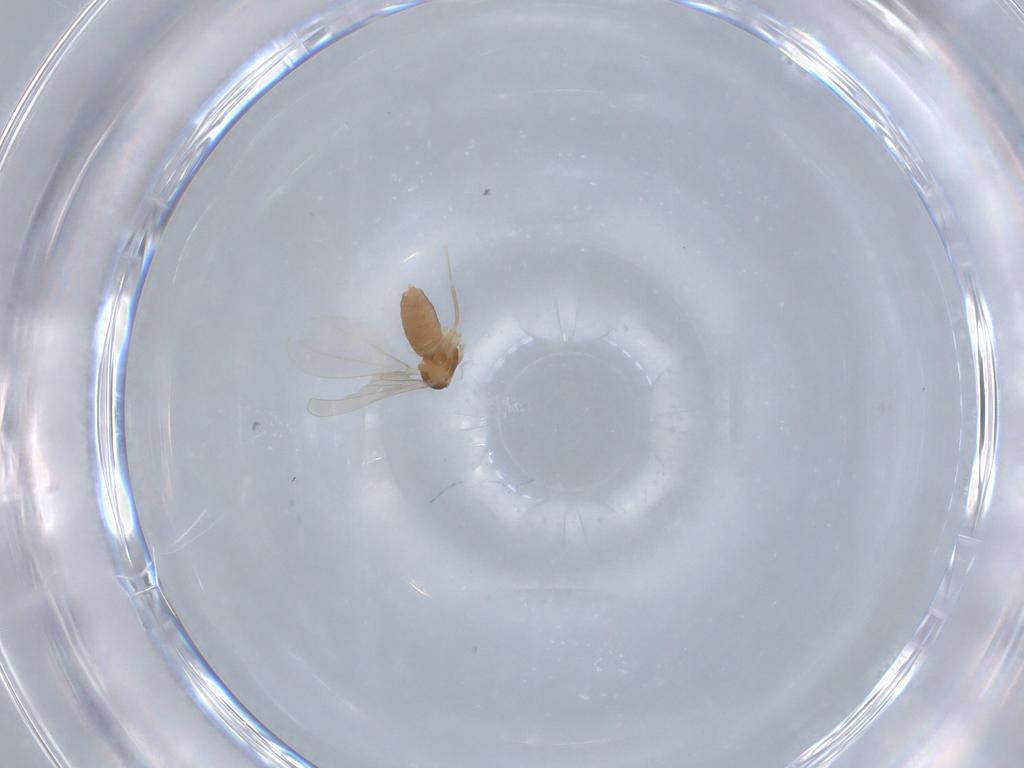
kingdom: Animalia
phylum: Arthropoda
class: Insecta
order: Diptera
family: Cecidomyiidae
